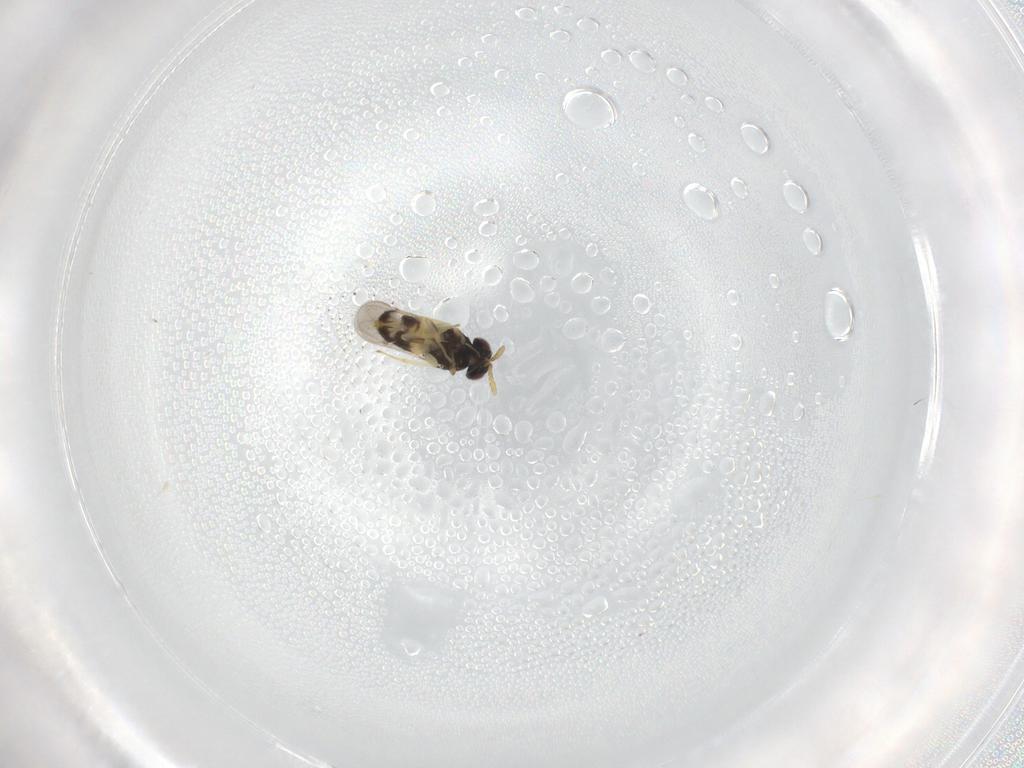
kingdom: Animalia
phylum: Arthropoda
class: Insecta
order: Hymenoptera
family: Aphelinidae
